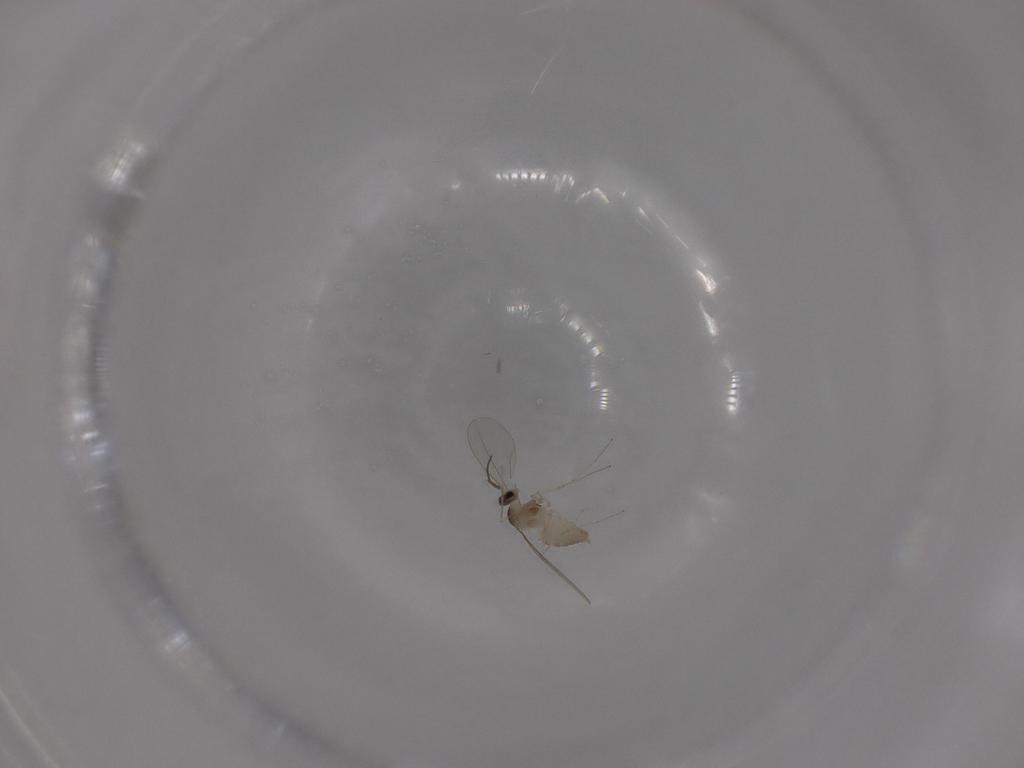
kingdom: Animalia
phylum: Arthropoda
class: Insecta
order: Diptera
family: Cecidomyiidae
